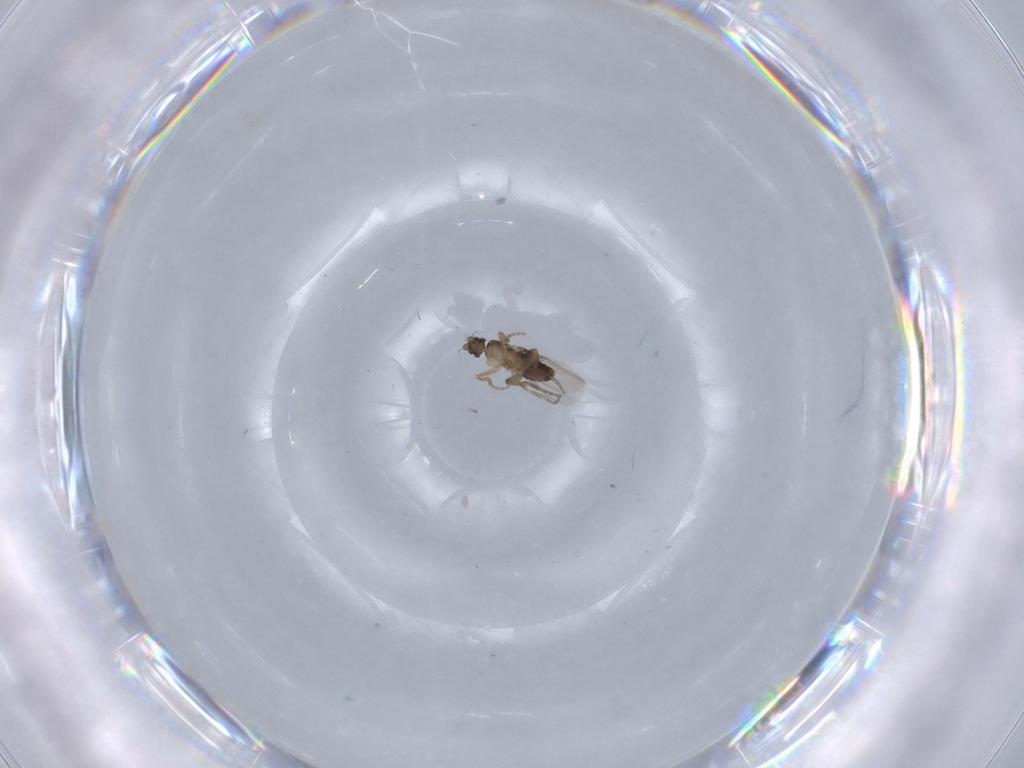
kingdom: Animalia
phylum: Arthropoda
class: Insecta
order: Diptera
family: Phoridae
